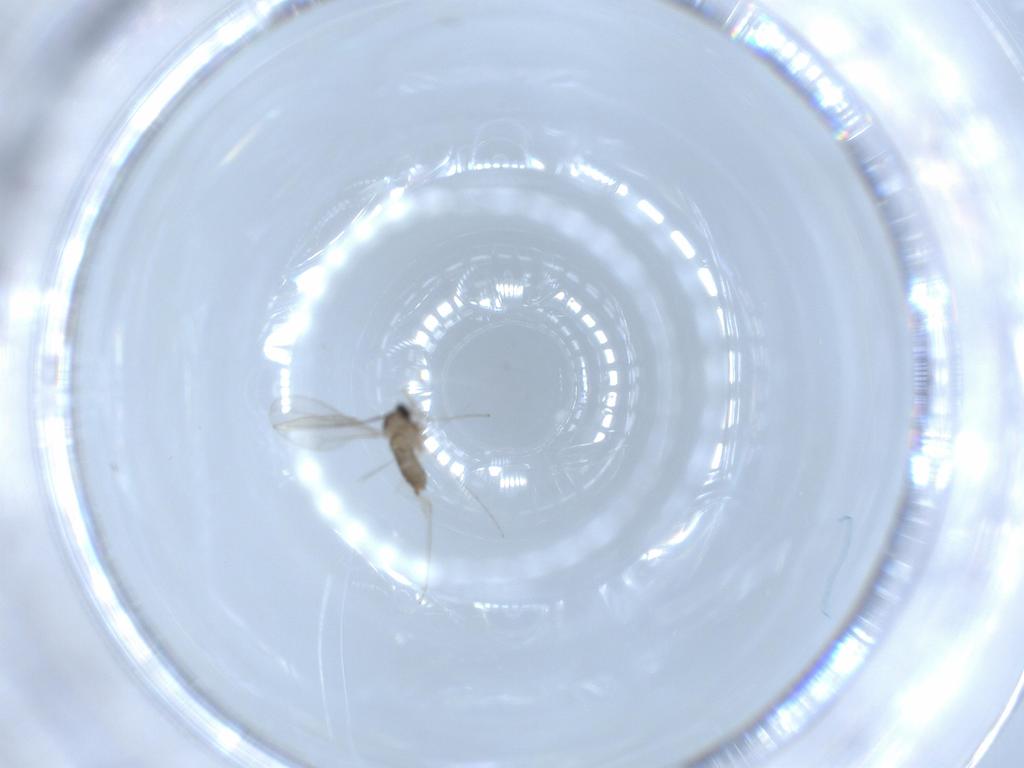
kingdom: Animalia
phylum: Arthropoda
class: Insecta
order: Diptera
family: Cecidomyiidae
